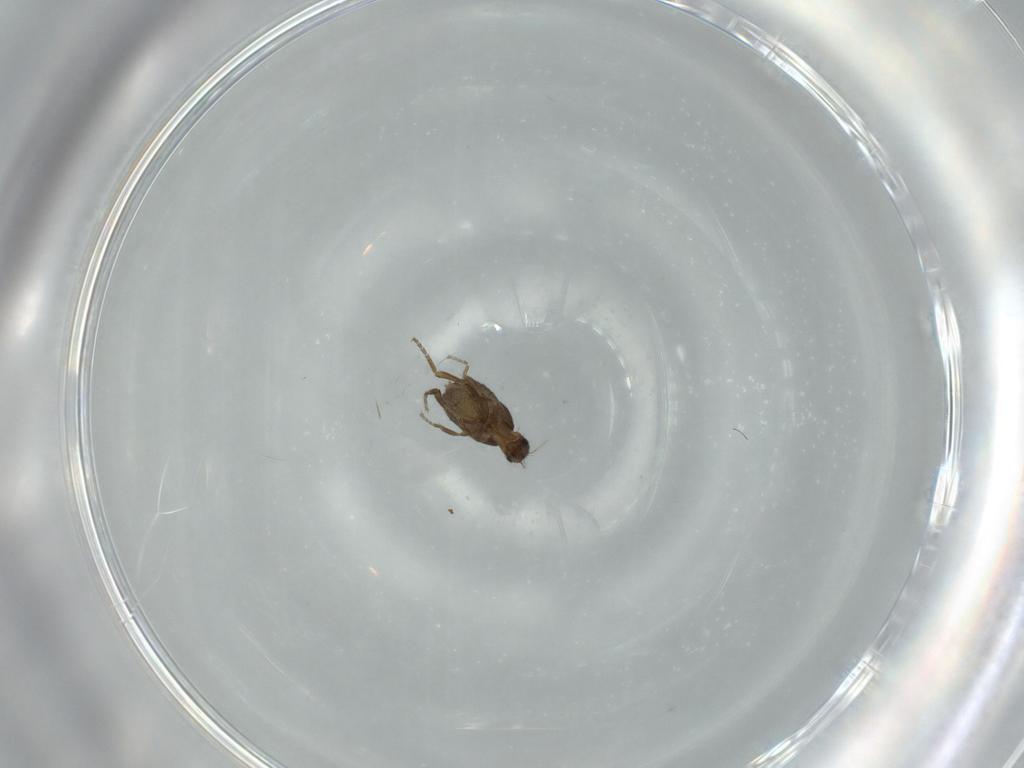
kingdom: Animalia
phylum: Arthropoda
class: Insecta
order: Diptera
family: Phoridae
